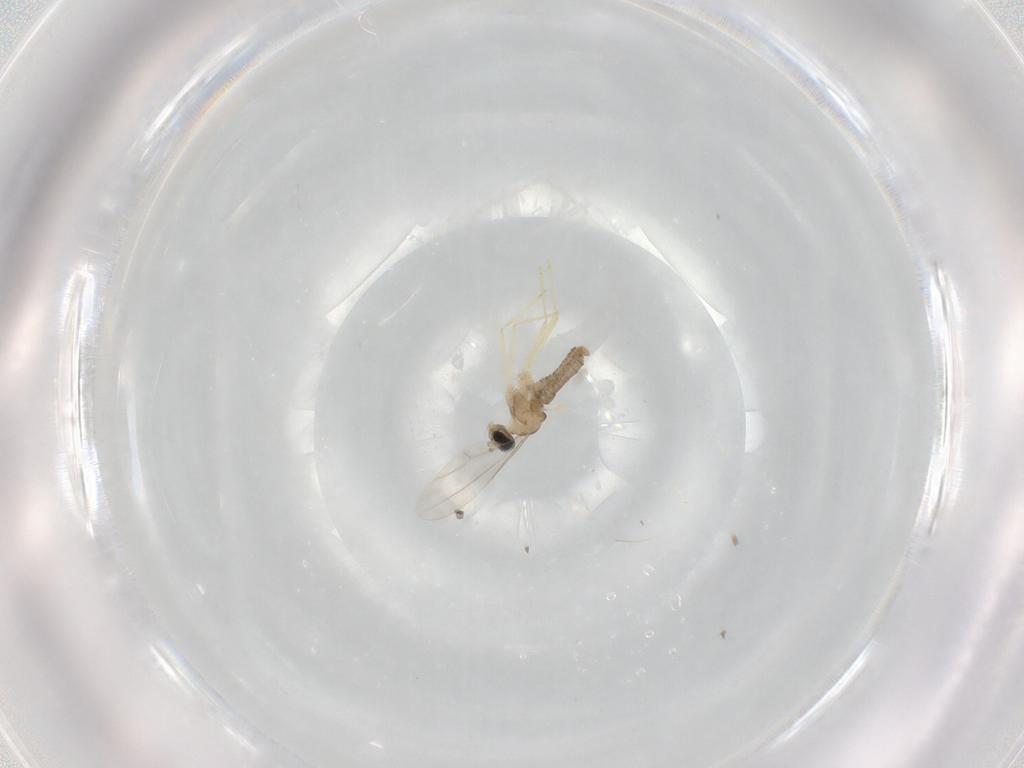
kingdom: Animalia
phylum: Arthropoda
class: Insecta
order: Diptera
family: Cecidomyiidae
